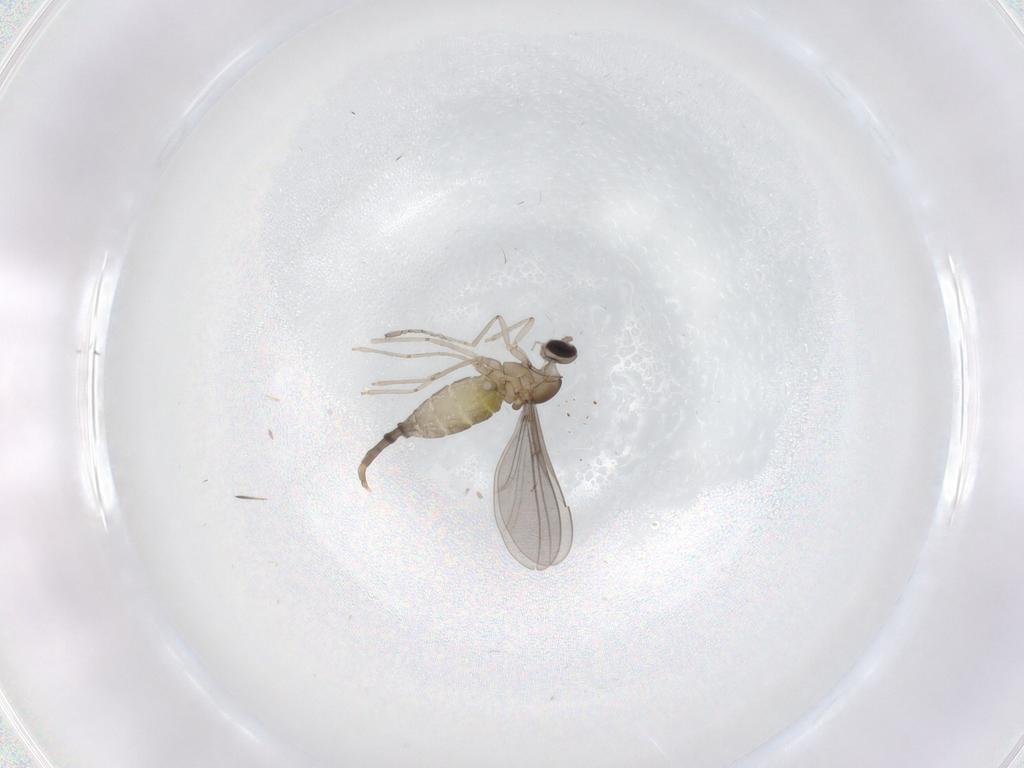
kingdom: Animalia
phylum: Arthropoda
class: Insecta
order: Diptera
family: Cecidomyiidae
